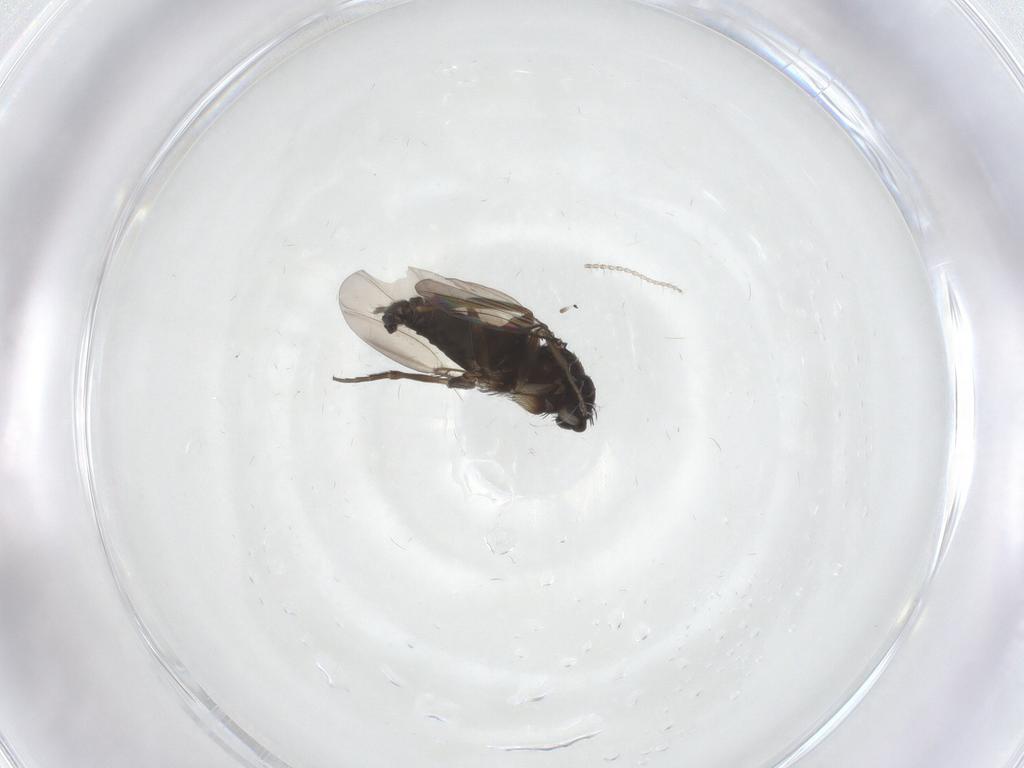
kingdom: Animalia
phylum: Arthropoda
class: Insecta
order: Diptera
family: Phoridae
